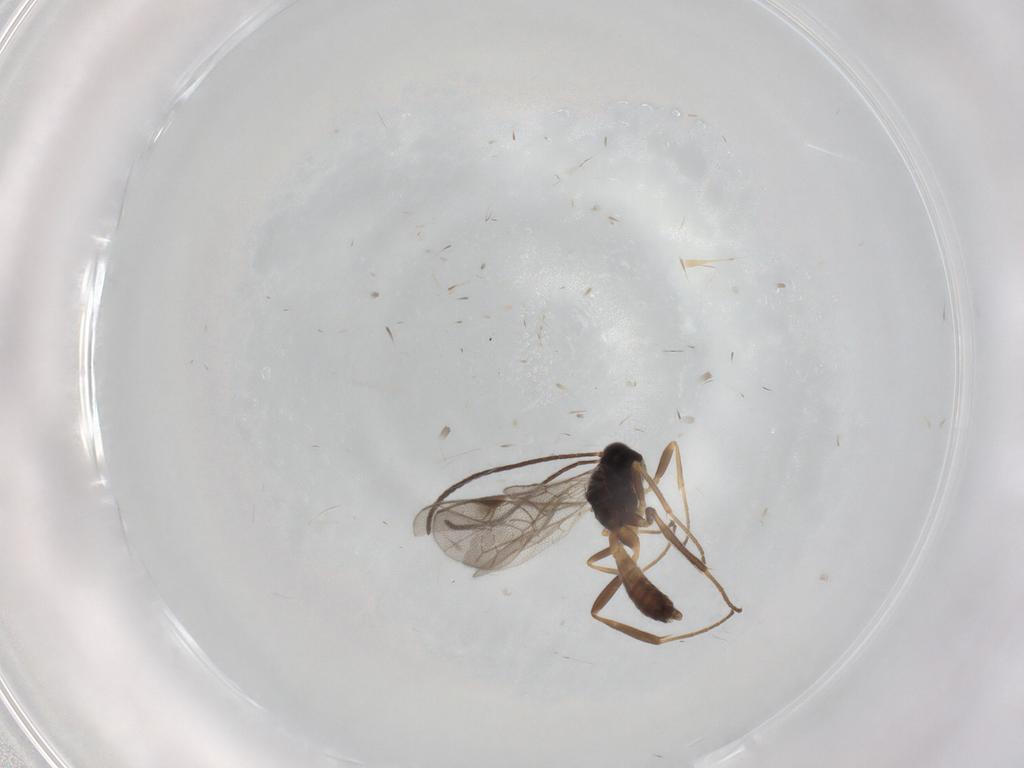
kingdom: Animalia
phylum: Arthropoda
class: Insecta
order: Hymenoptera
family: Ichneumonidae
